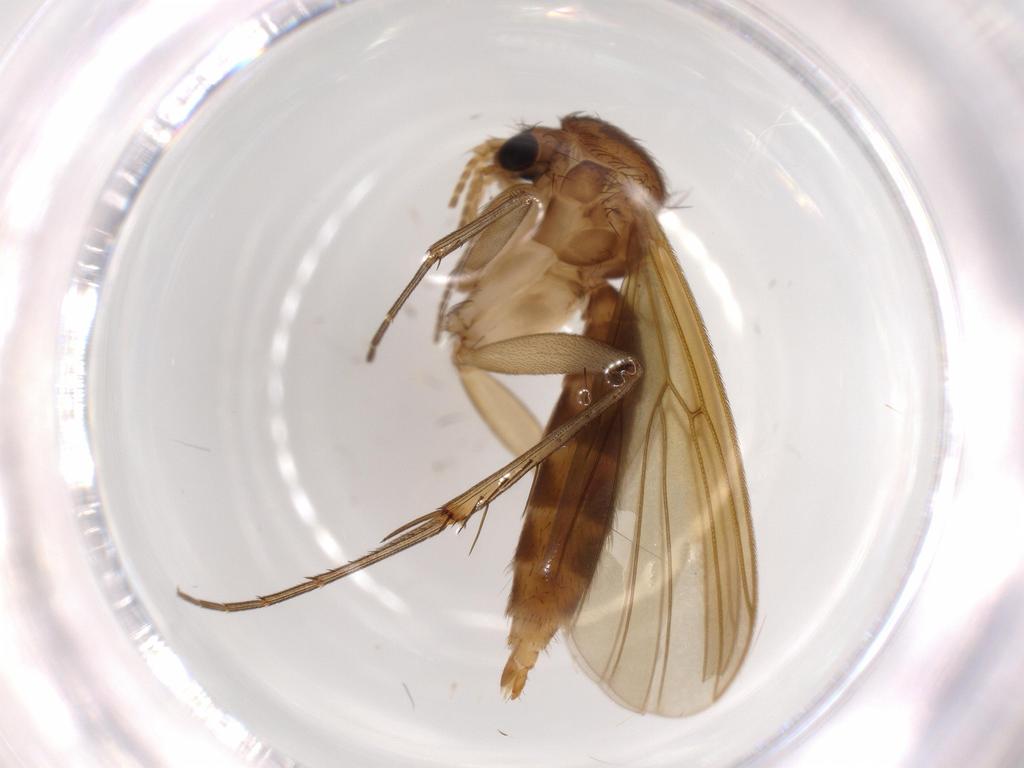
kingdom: Animalia
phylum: Arthropoda
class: Insecta
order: Diptera
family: Mycetophilidae
